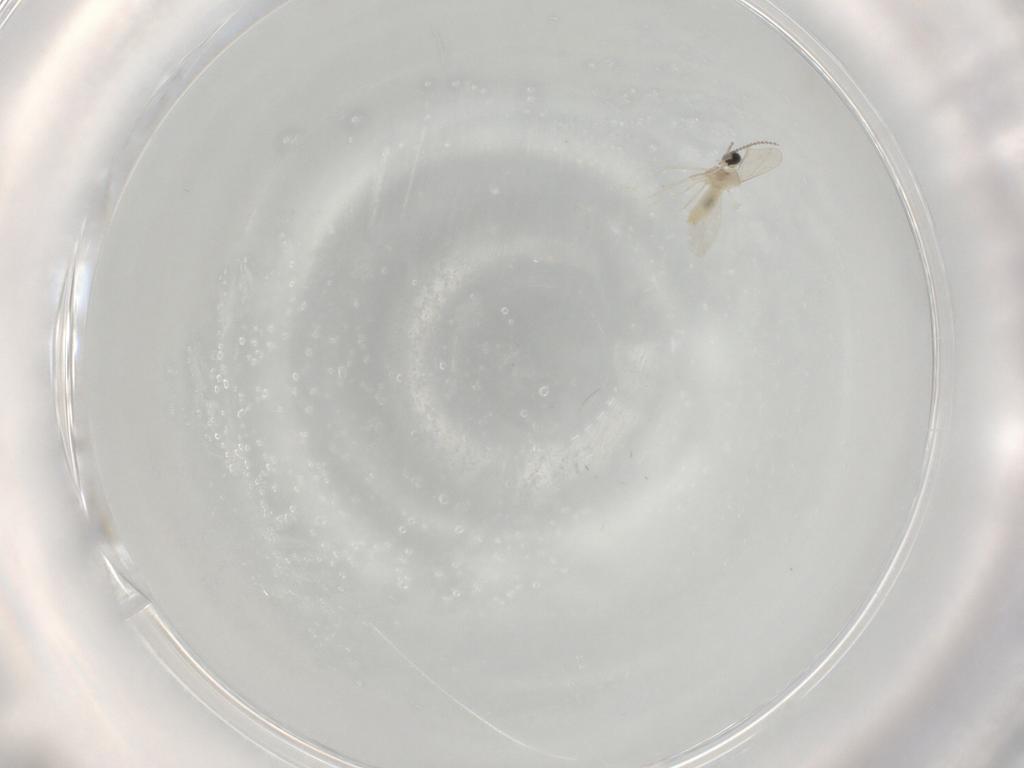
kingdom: Animalia
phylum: Arthropoda
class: Insecta
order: Diptera
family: Cecidomyiidae
